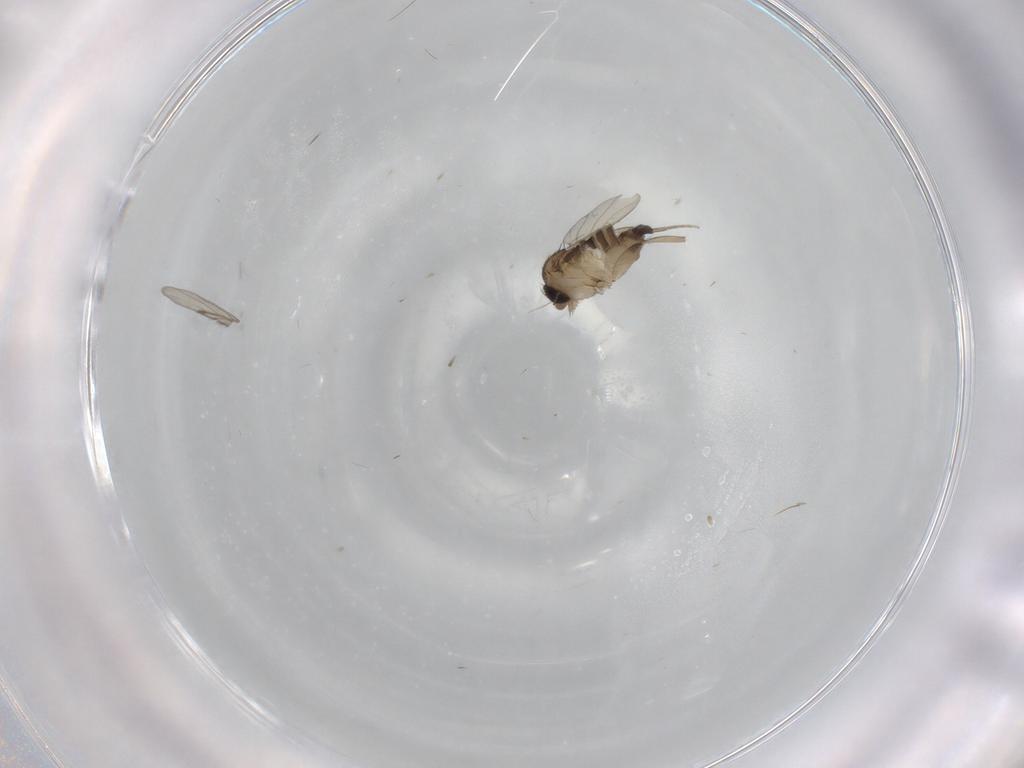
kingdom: Animalia
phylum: Arthropoda
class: Insecta
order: Diptera
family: Phoridae
